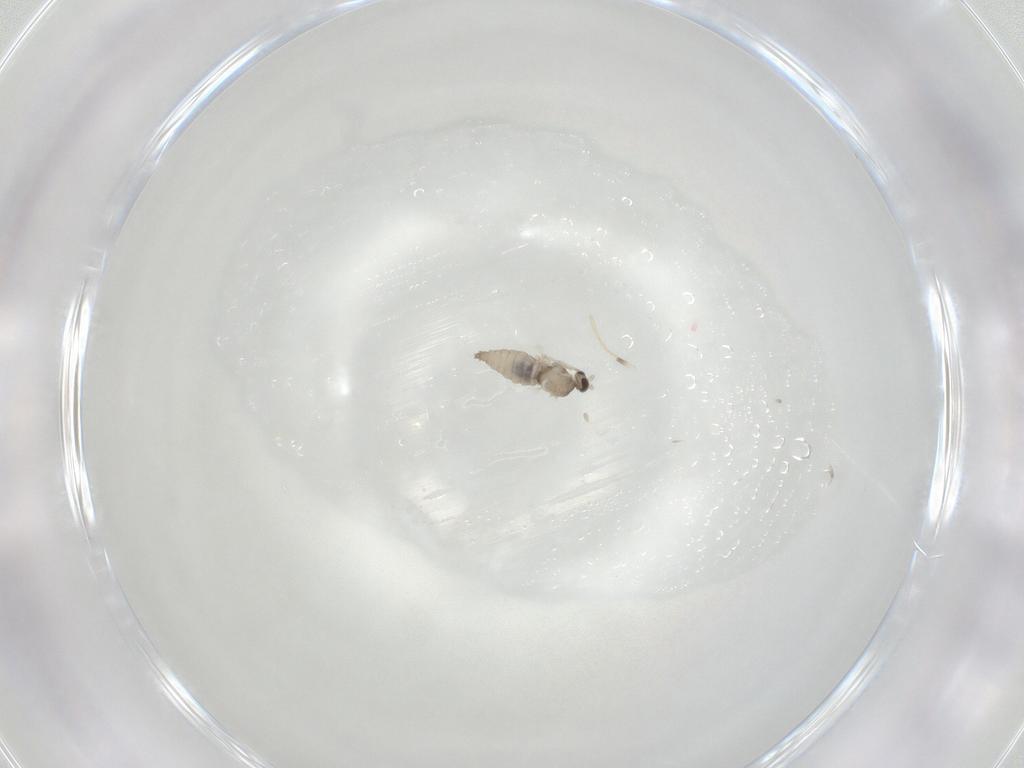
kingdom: Animalia
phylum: Arthropoda
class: Insecta
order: Diptera
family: Cecidomyiidae
